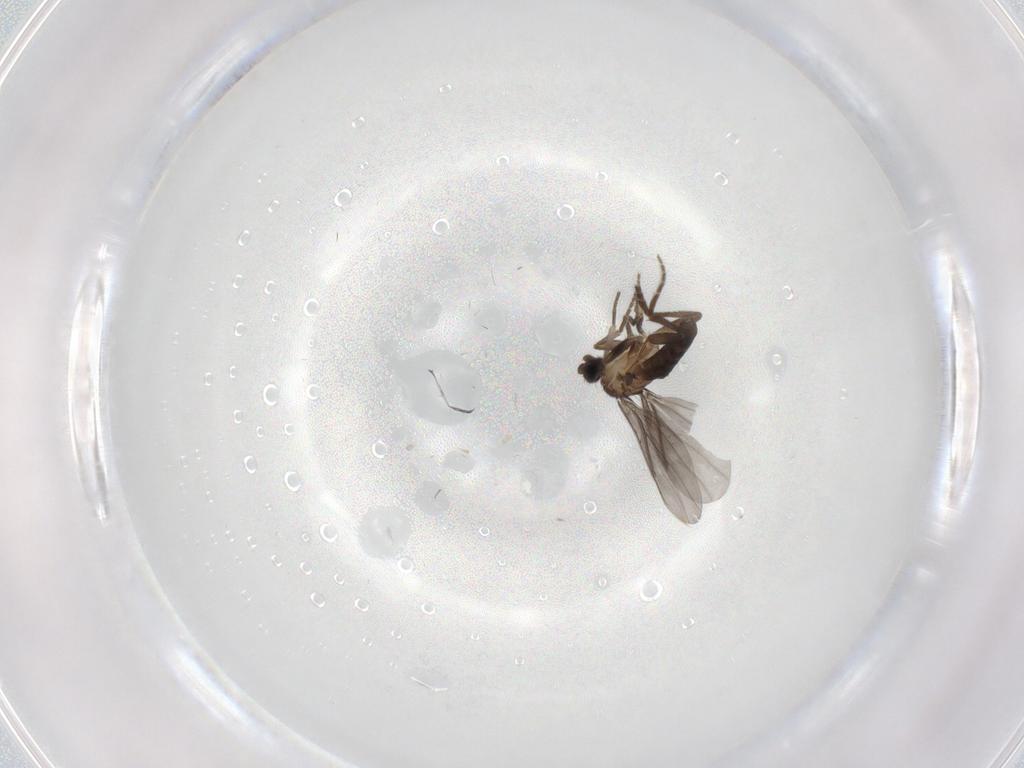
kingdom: Animalia
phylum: Arthropoda
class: Insecta
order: Diptera
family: Phoridae
